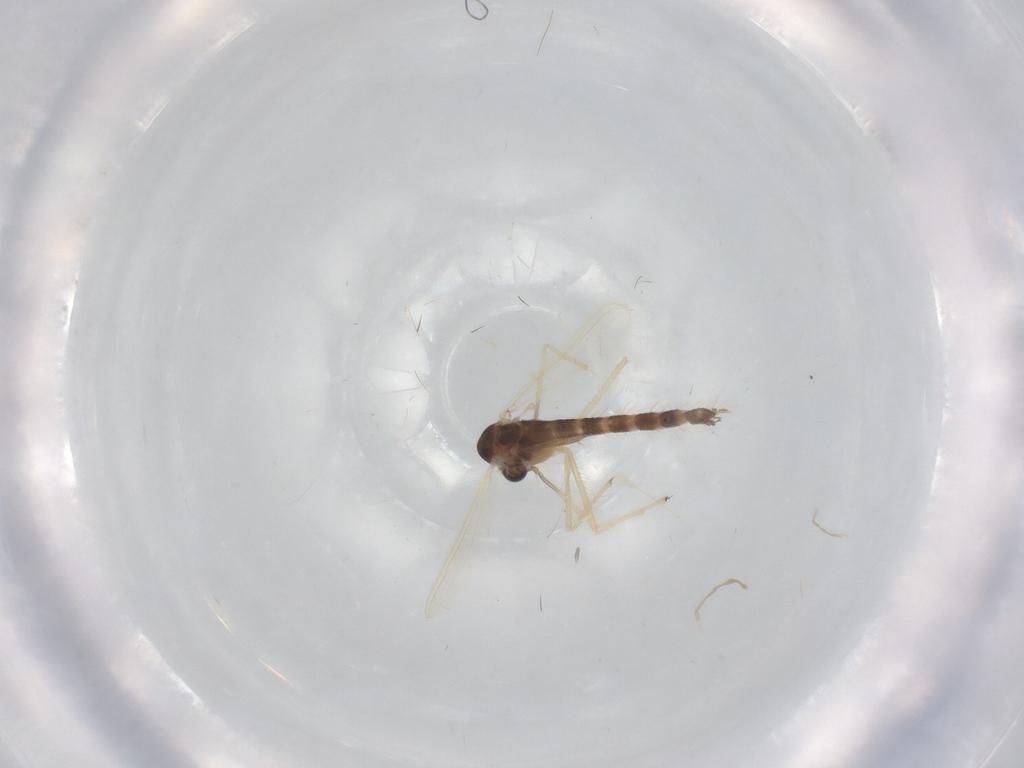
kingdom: Animalia
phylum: Arthropoda
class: Insecta
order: Diptera
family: Chironomidae
